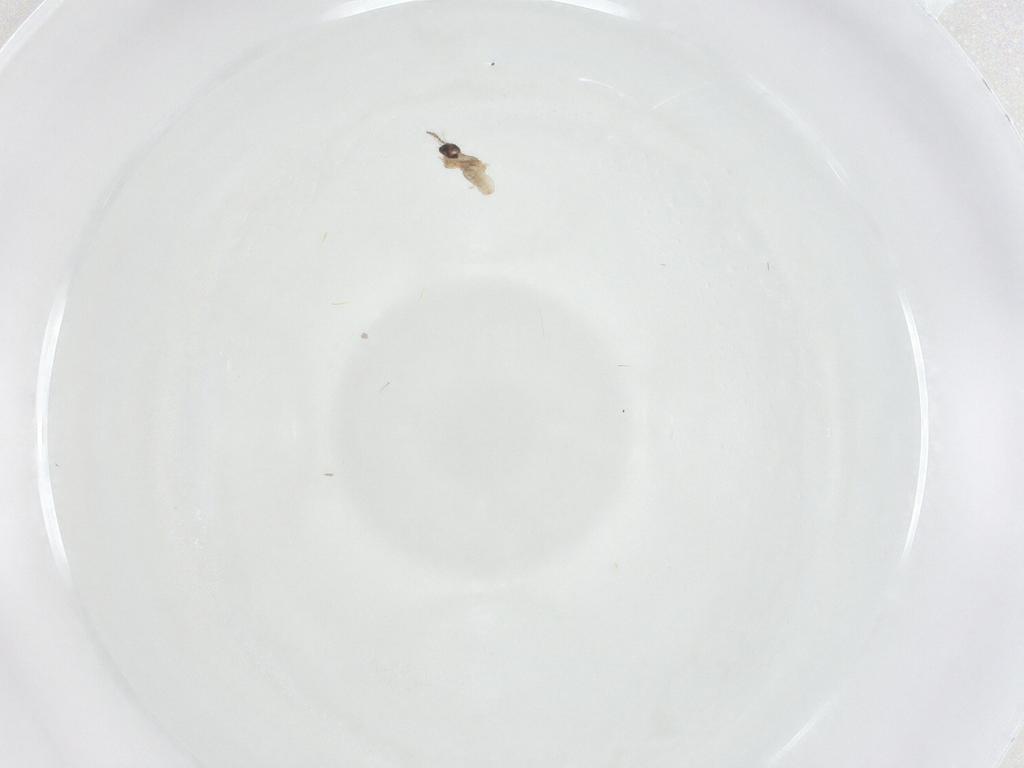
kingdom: Animalia
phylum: Arthropoda
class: Insecta
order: Diptera
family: Cecidomyiidae
